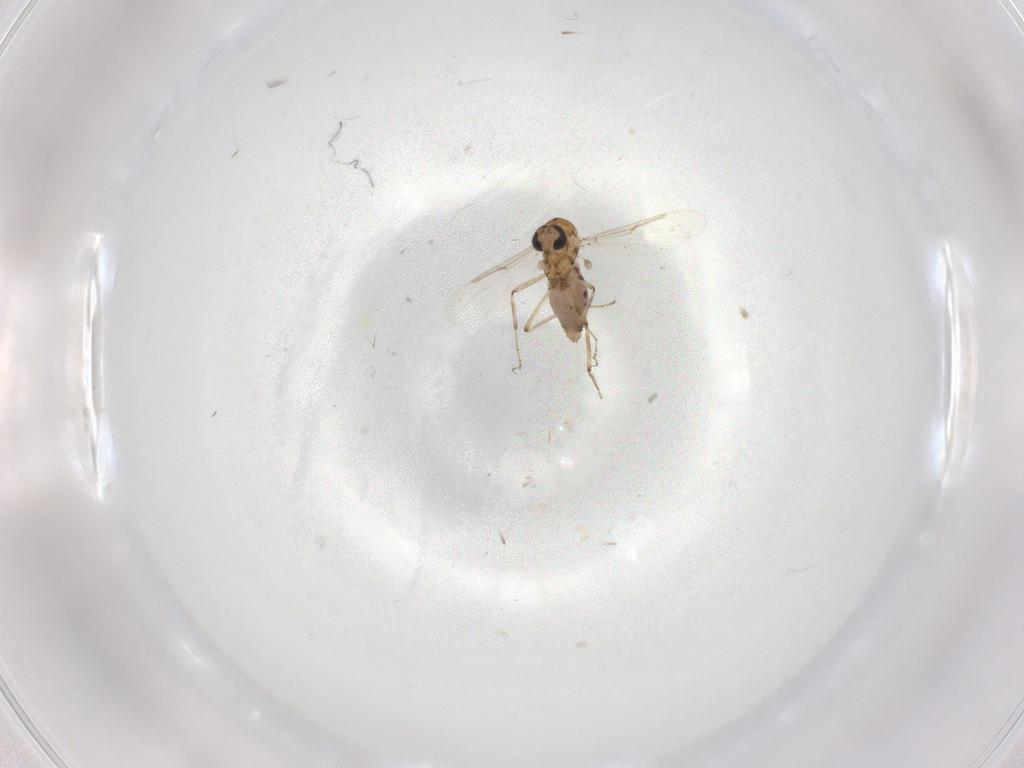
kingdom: Animalia
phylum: Arthropoda
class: Insecta
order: Diptera
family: Ceratopogonidae
